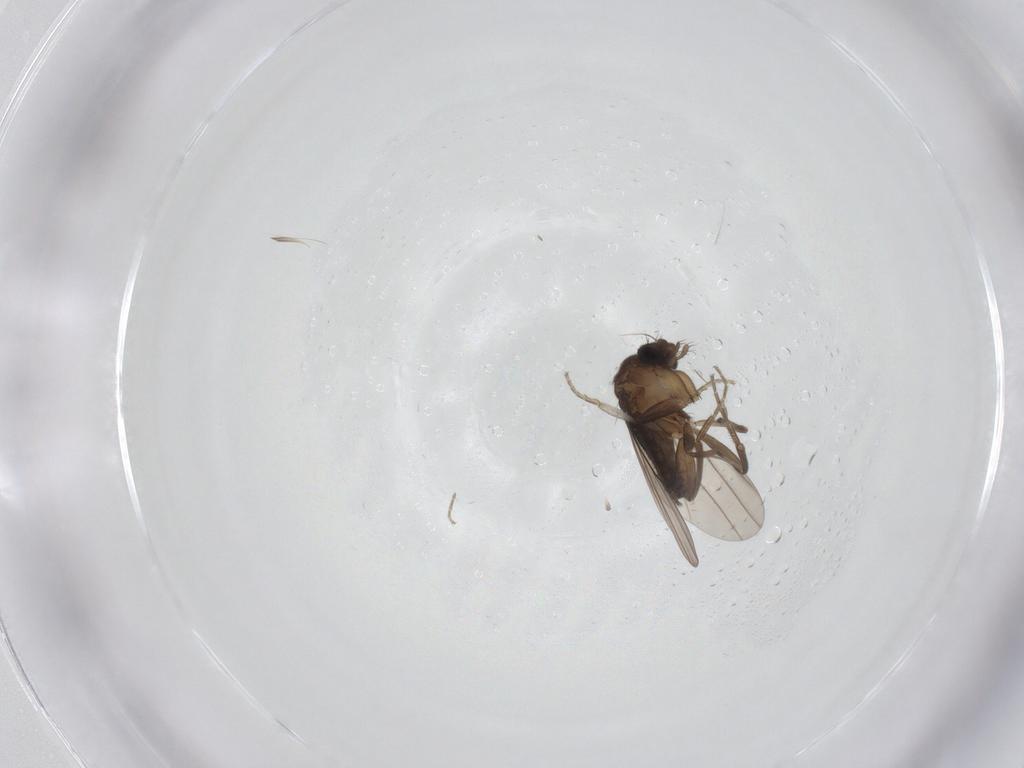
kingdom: Animalia
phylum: Arthropoda
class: Insecta
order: Diptera
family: Phoridae
